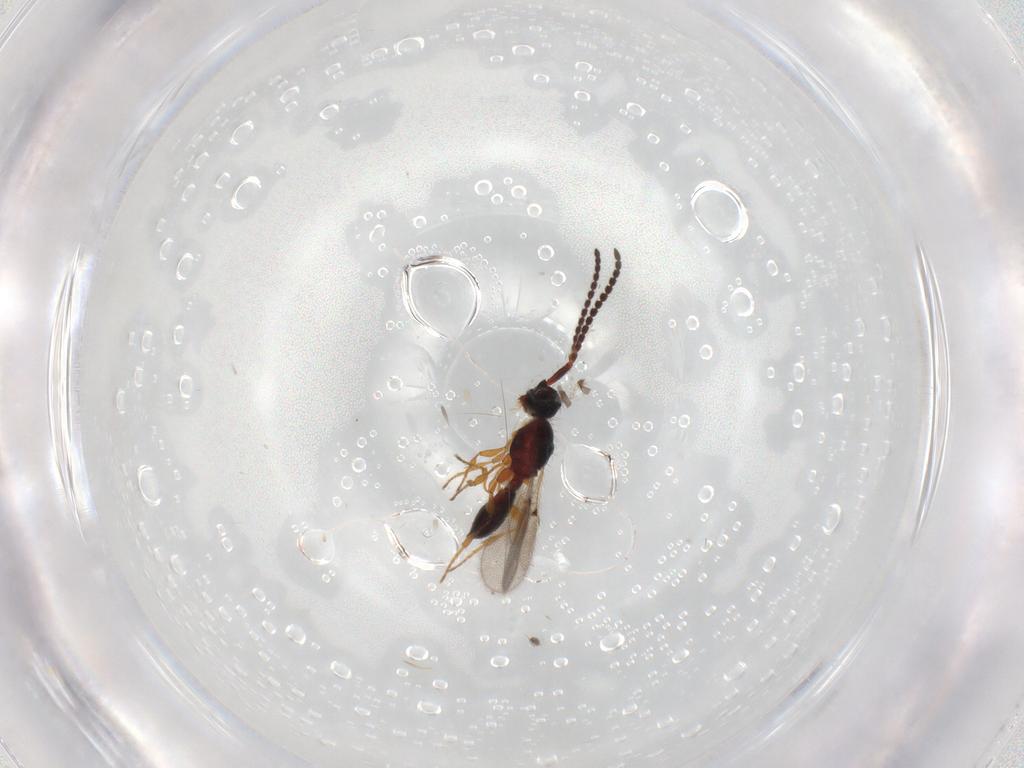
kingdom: Animalia
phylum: Arthropoda
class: Insecta
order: Hymenoptera
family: Diapriidae
